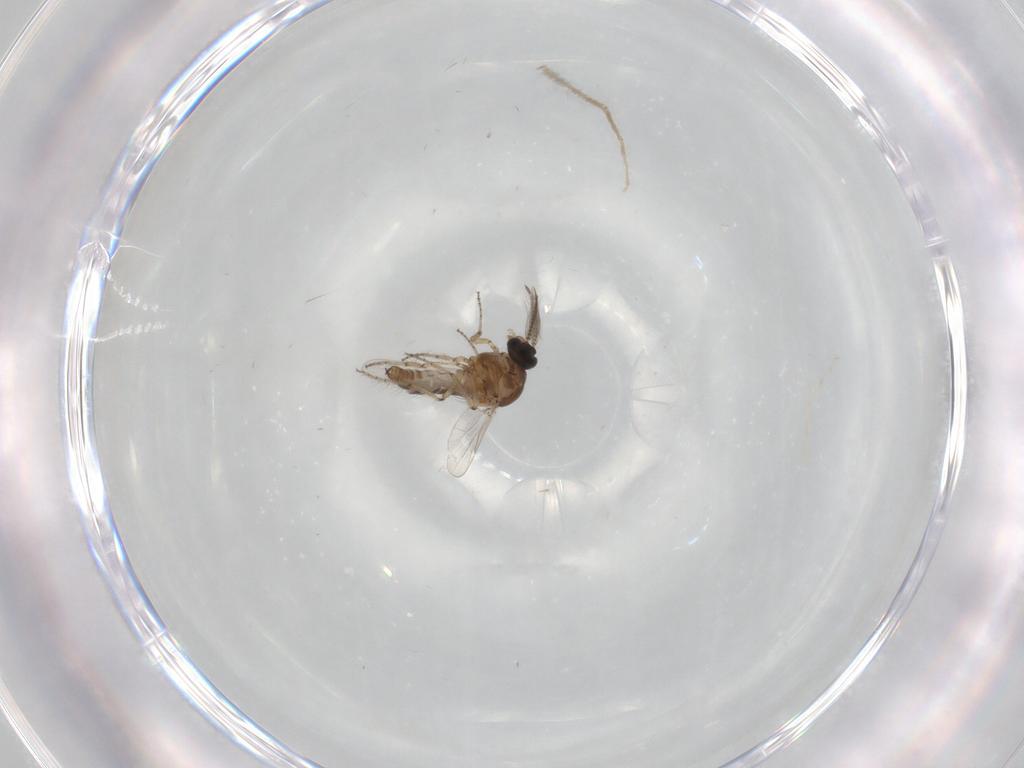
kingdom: Animalia
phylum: Arthropoda
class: Insecta
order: Diptera
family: Ceratopogonidae
